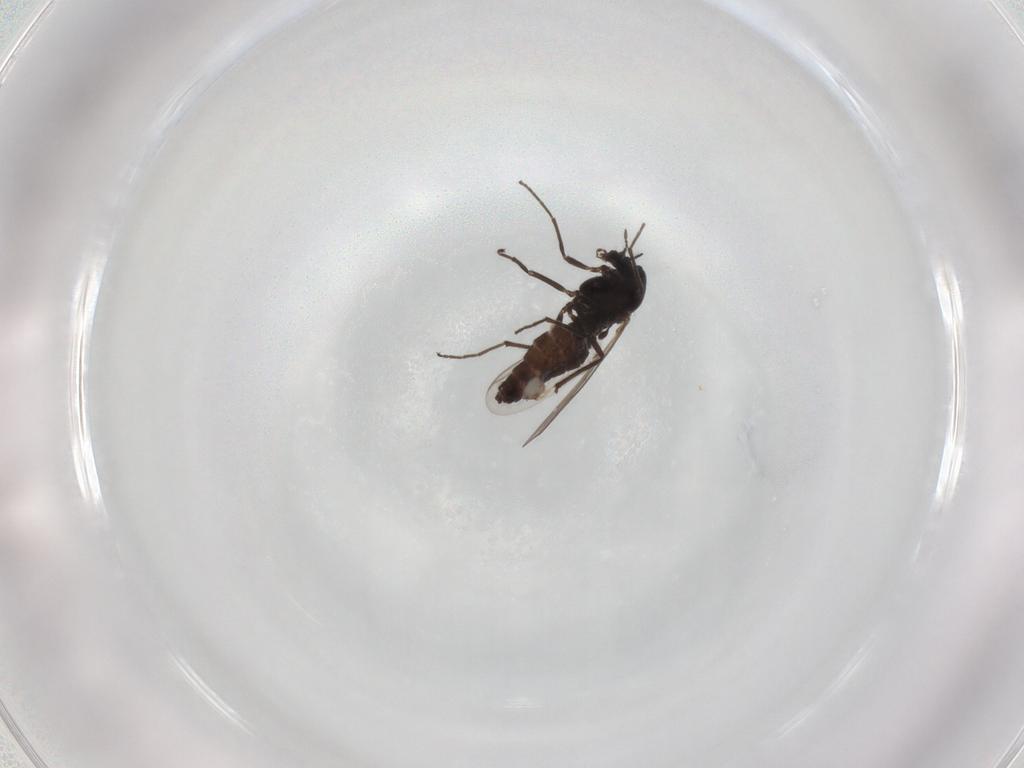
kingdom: Animalia
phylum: Arthropoda
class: Insecta
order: Diptera
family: Chironomidae
